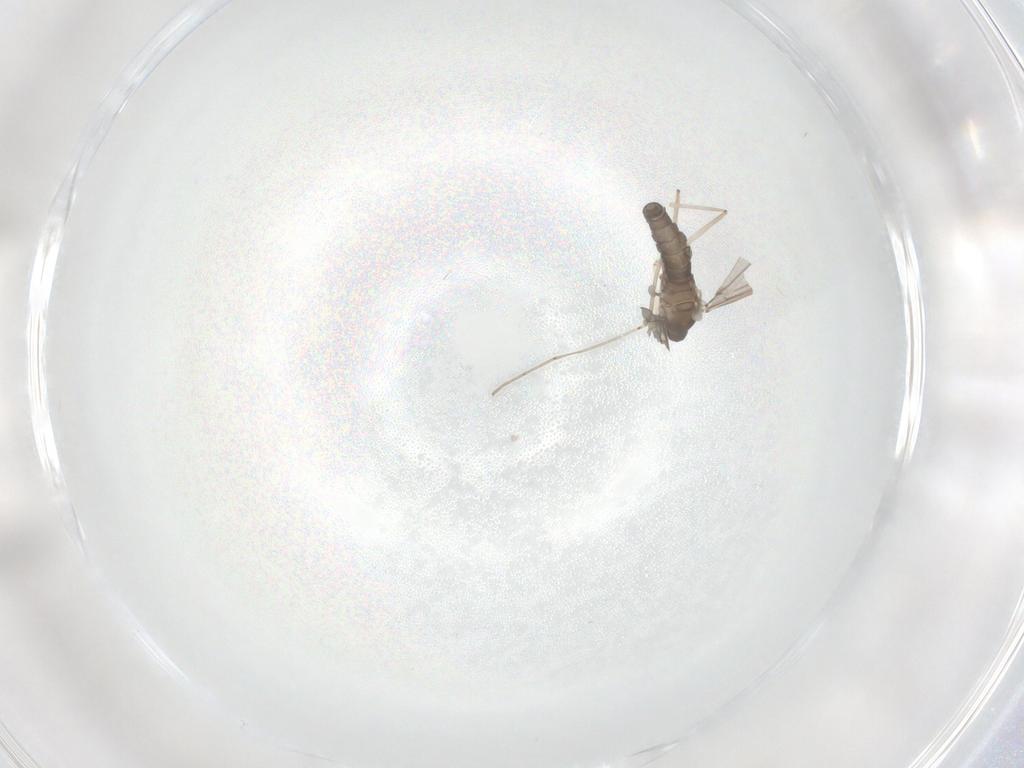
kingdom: Animalia
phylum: Arthropoda
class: Insecta
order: Diptera
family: Cecidomyiidae
